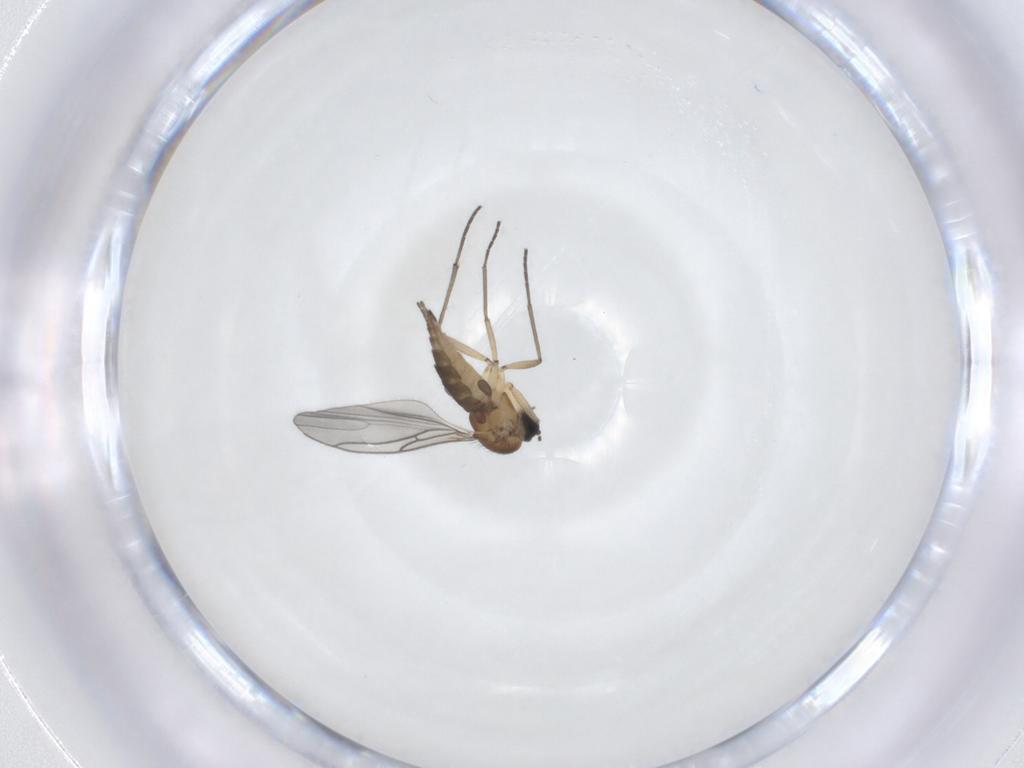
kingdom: Animalia
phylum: Arthropoda
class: Insecta
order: Diptera
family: Sciaridae
